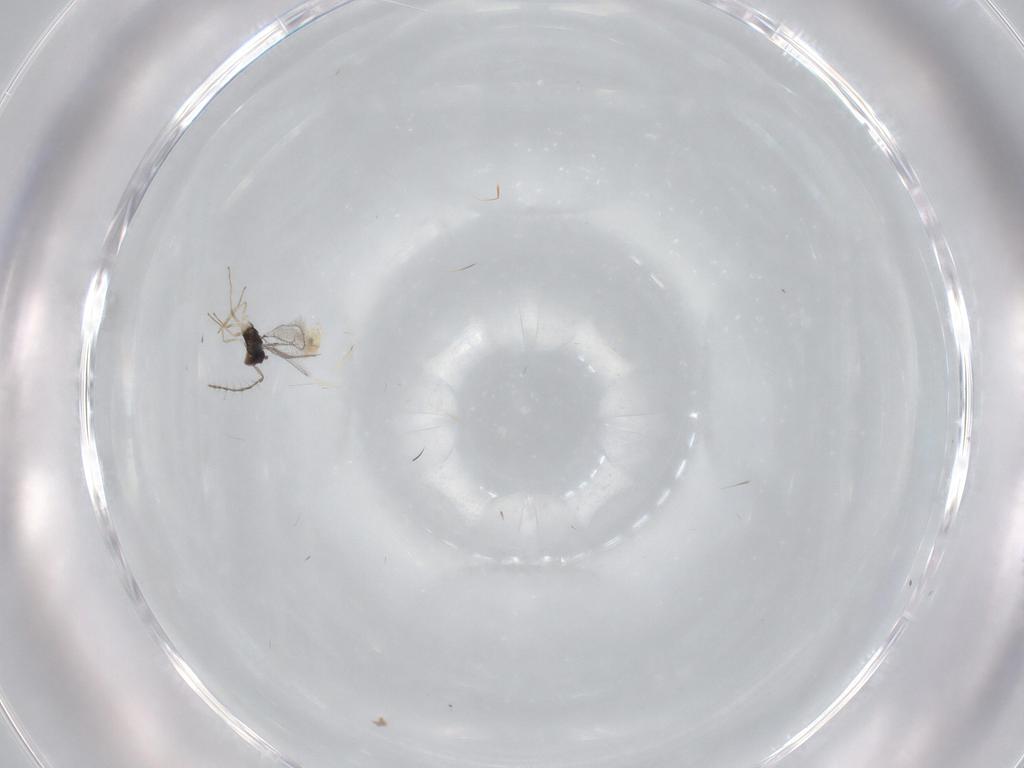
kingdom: Animalia
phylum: Arthropoda
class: Insecta
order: Hymenoptera
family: Pteromalidae
